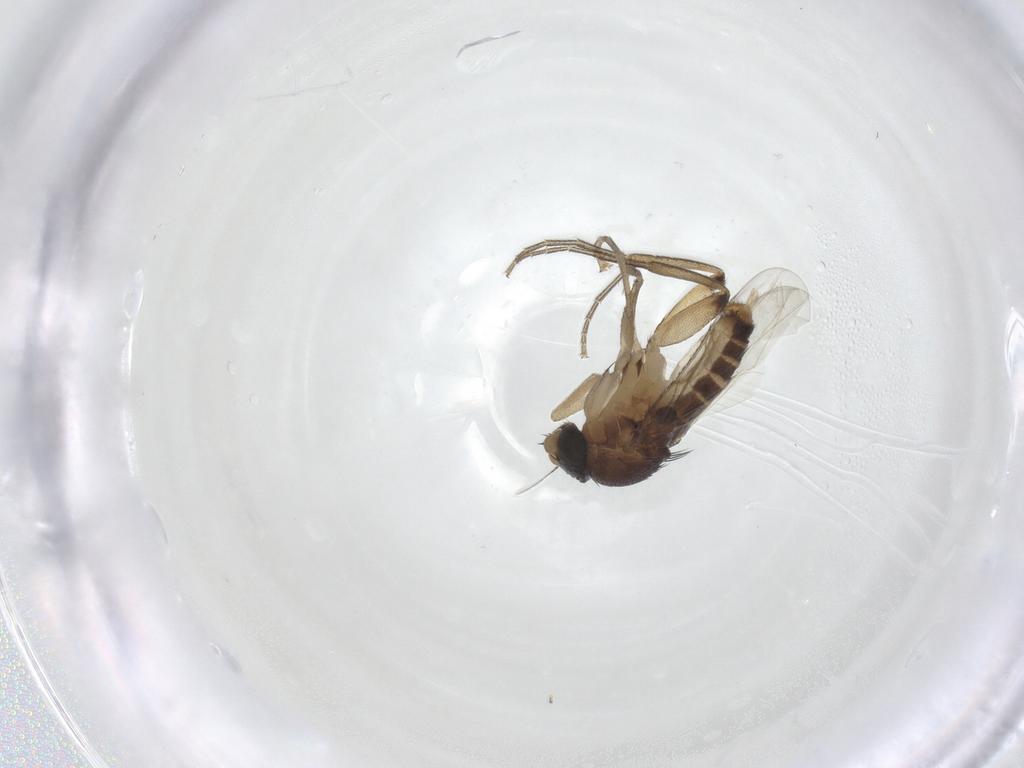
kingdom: Animalia
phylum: Arthropoda
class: Insecta
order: Diptera
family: Phoridae
